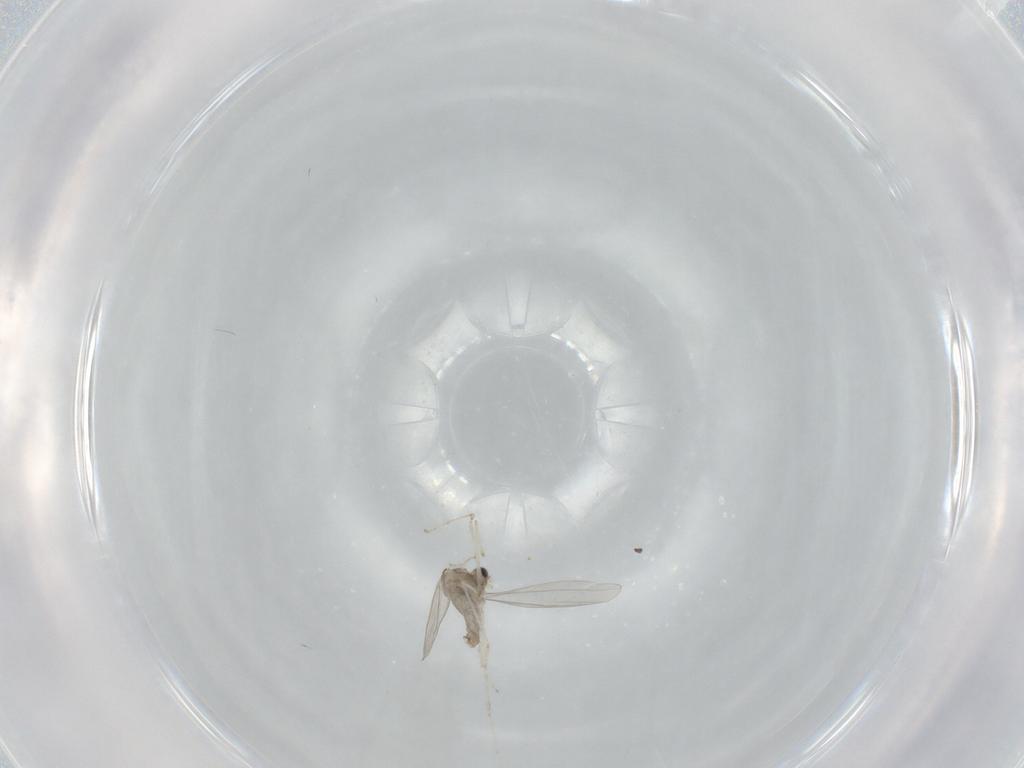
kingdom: Animalia
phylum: Arthropoda
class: Insecta
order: Diptera
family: Cecidomyiidae
